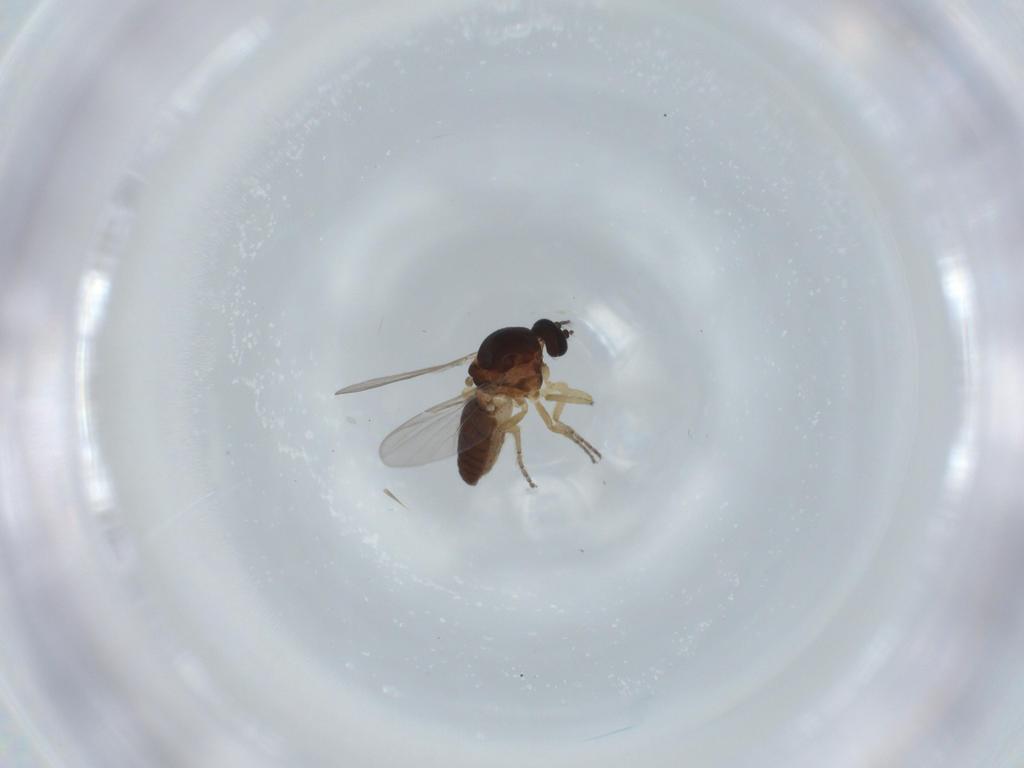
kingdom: Animalia
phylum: Arthropoda
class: Insecta
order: Diptera
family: Ceratopogonidae
